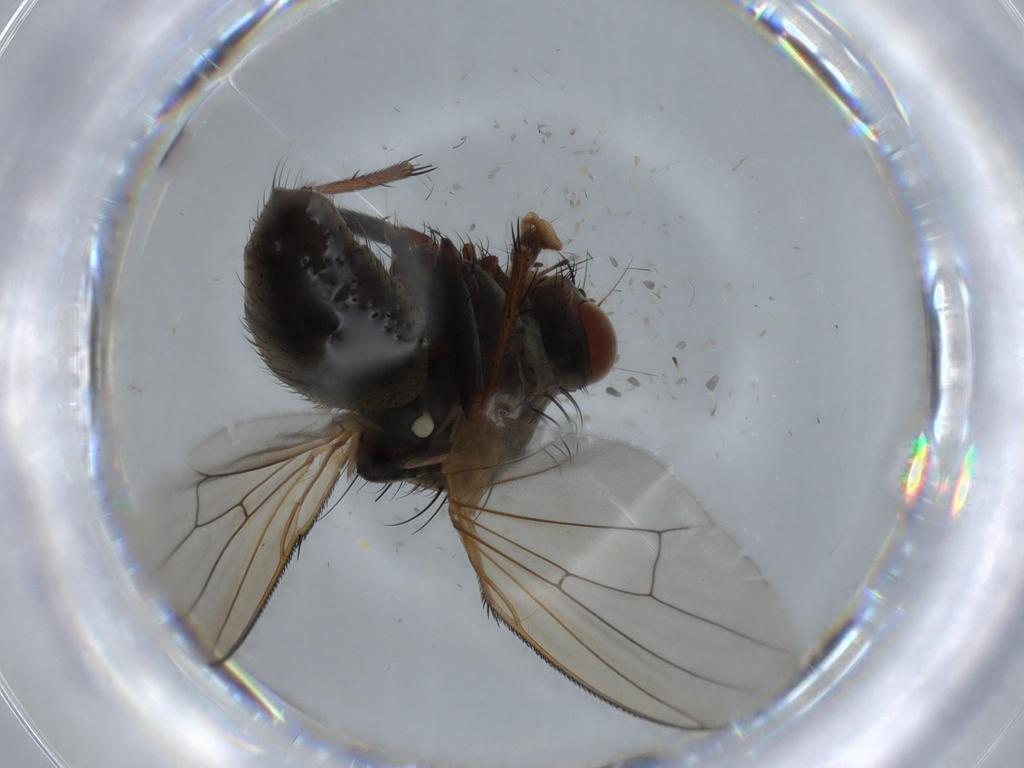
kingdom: Animalia
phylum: Arthropoda
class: Insecta
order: Diptera
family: Anthomyiidae
